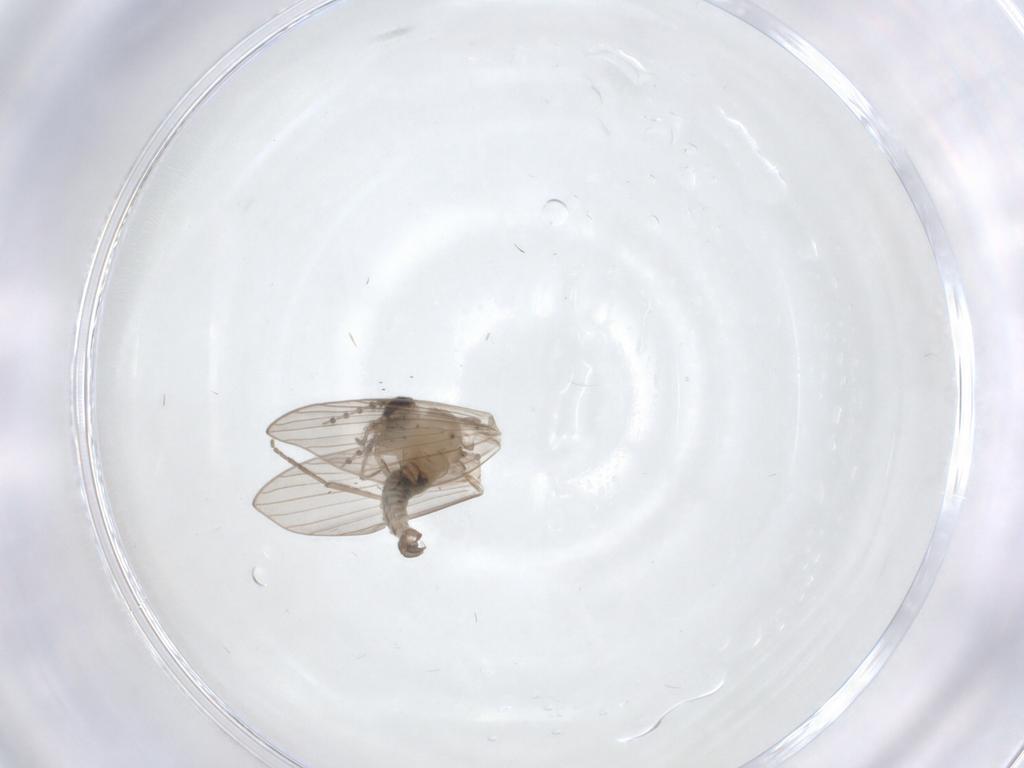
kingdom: Animalia
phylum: Arthropoda
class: Insecta
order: Diptera
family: Chironomidae
